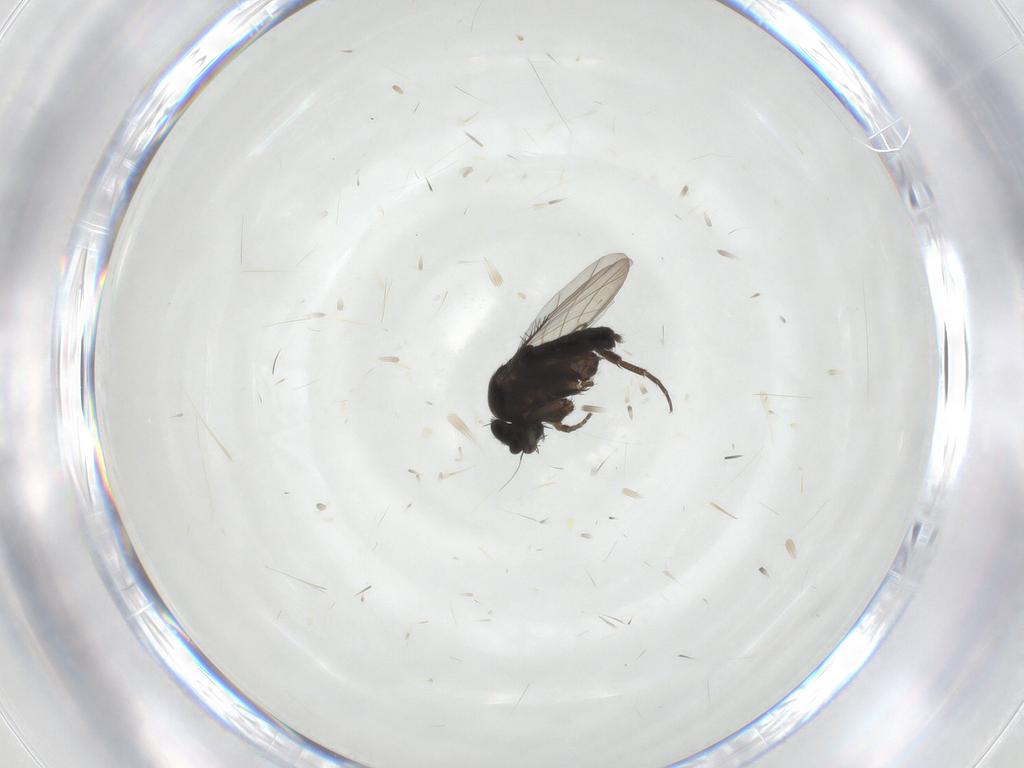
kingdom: Animalia
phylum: Arthropoda
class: Insecta
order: Diptera
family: Phoridae
